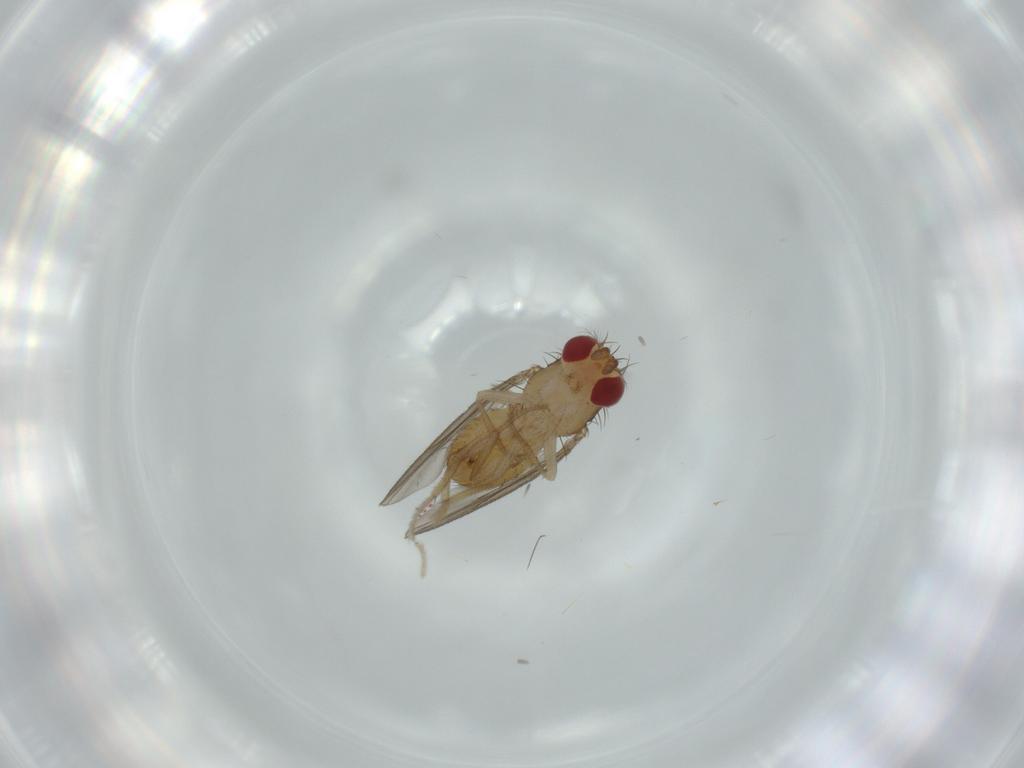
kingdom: Animalia
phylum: Arthropoda
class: Insecta
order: Diptera
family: Drosophilidae
